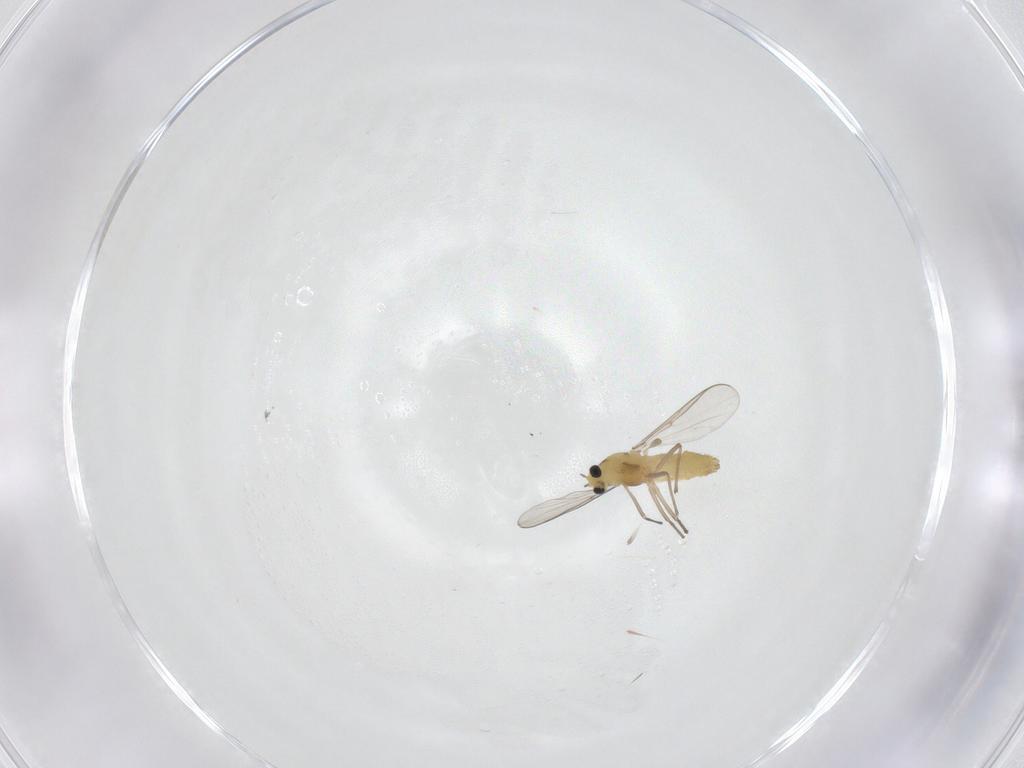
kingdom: Animalia
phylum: Arthropoda
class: Insecta
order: Diptera
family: Chironomidae
